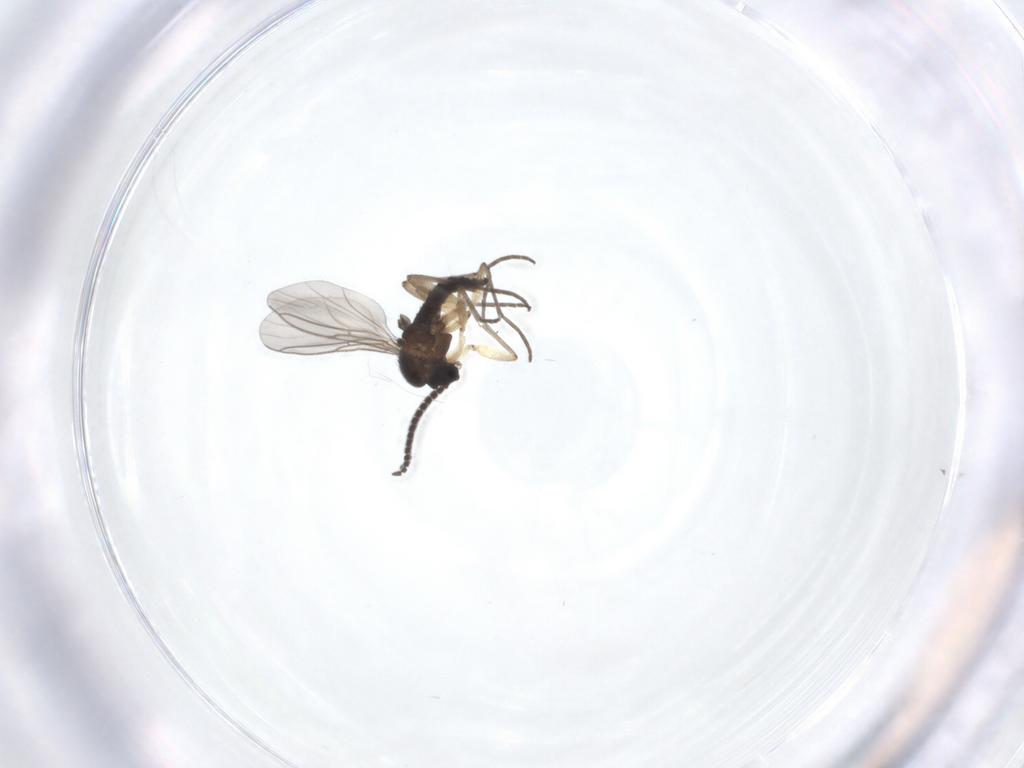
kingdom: Animalia
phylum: Arthropoda
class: Insecta
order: Diptera
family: Sciaridae
